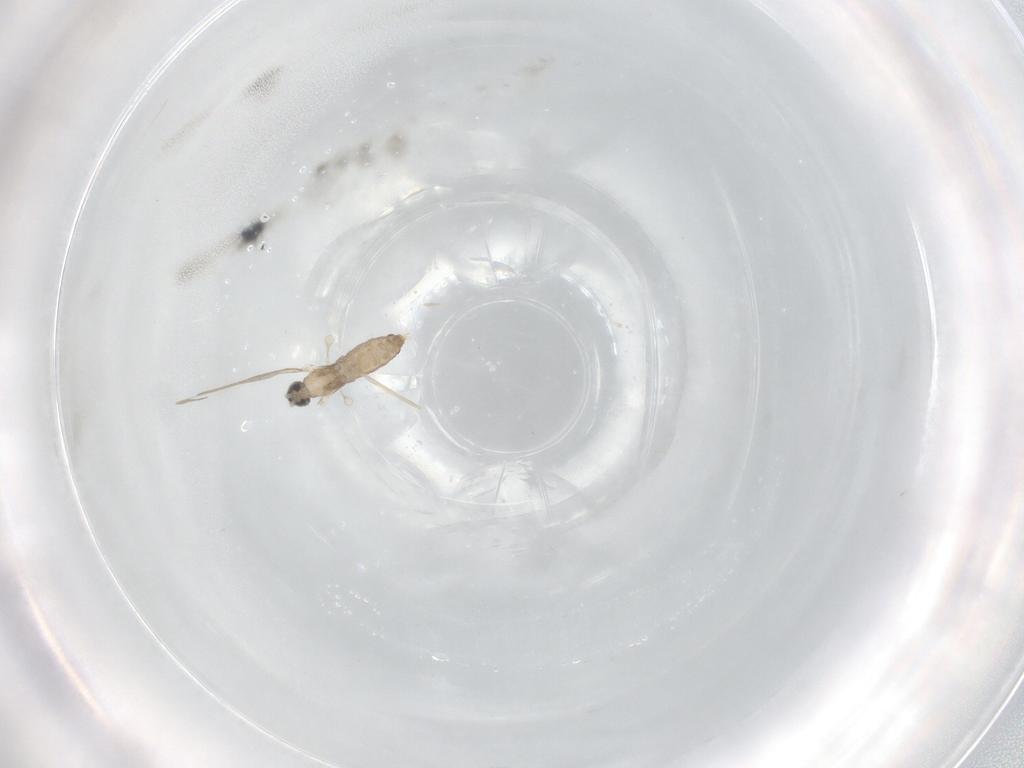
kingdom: Animalia
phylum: Arthropoda
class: Insecta
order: Diptera
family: Cecidomyiidae
